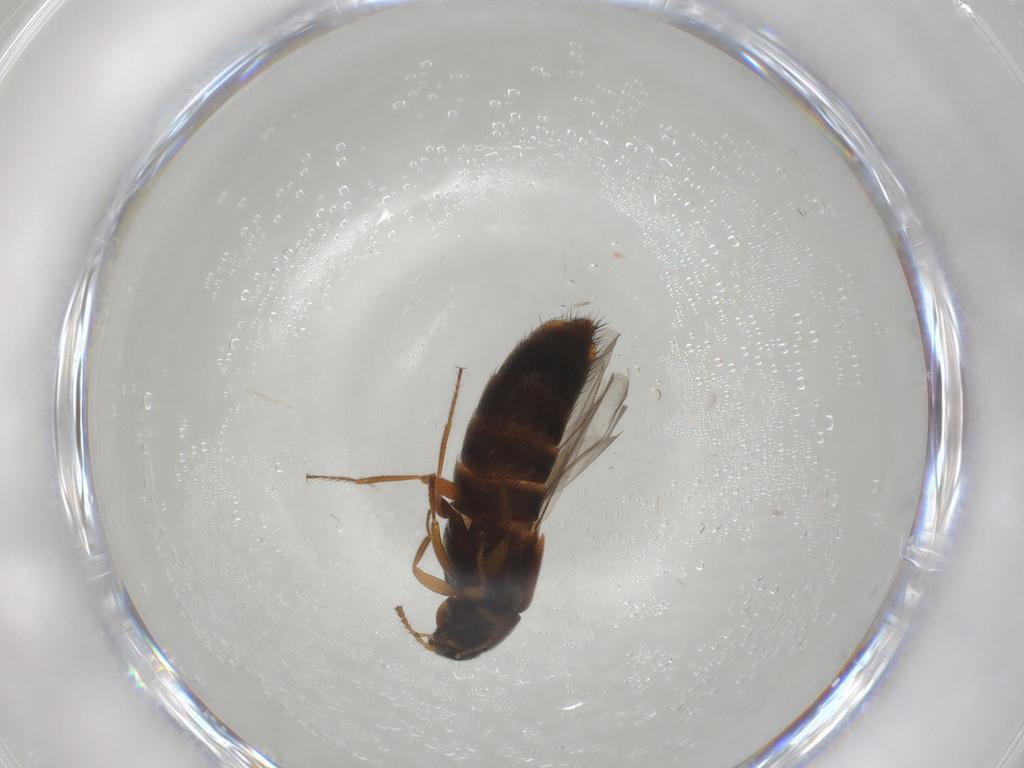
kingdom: Animalia
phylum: Arthropoda
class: Insecta
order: Coleoptera
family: Staphylinidae
